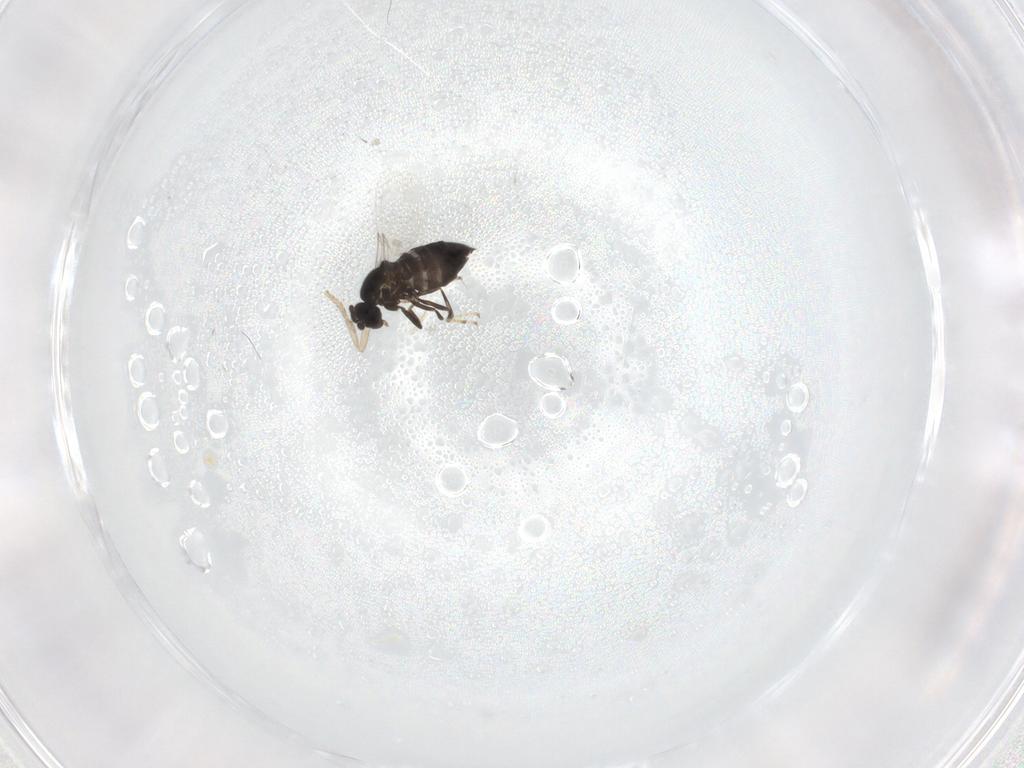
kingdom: Animalia
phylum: Arthropoda
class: Insecta
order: Diptera
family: Scatopsidae
